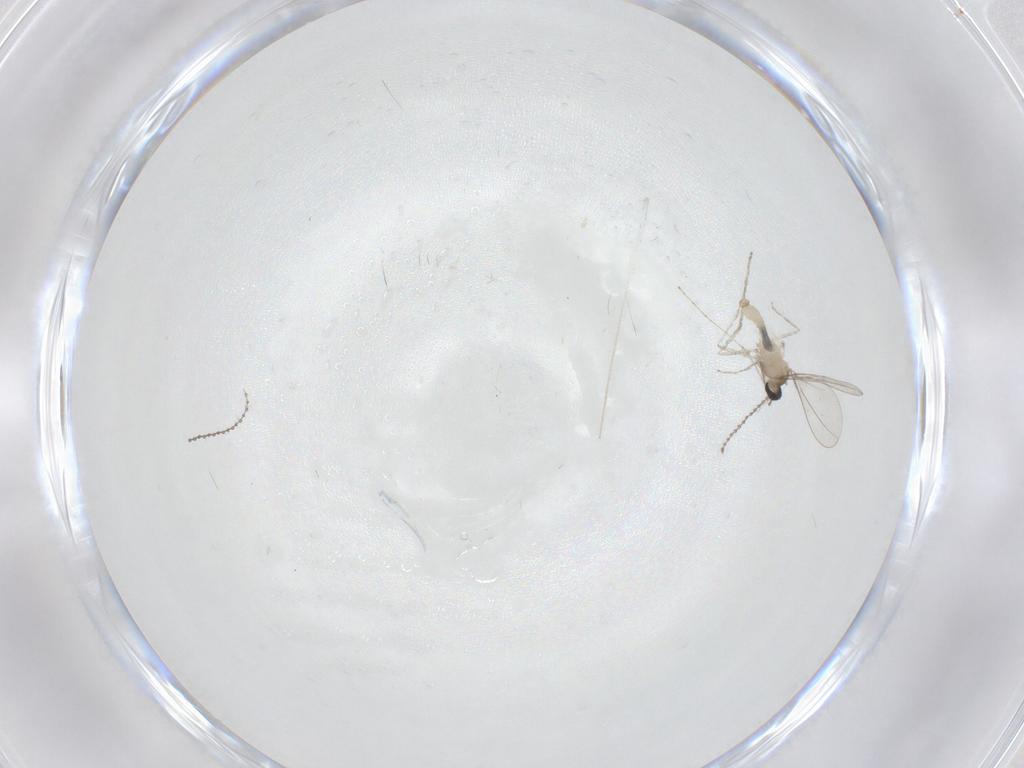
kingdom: Animalia
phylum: Arthropoda
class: Insecta
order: Diptera
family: Cecidomyiidae
